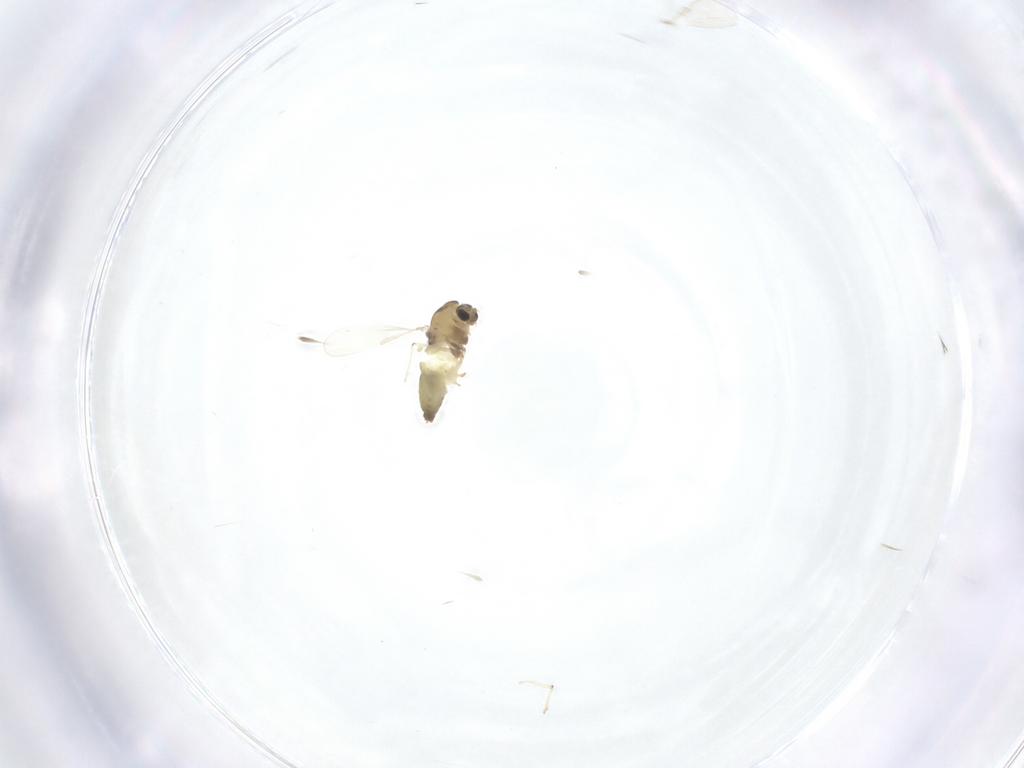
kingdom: Animalia
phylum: Arthropoda
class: Insecta
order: Diptera
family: Chironomidae
